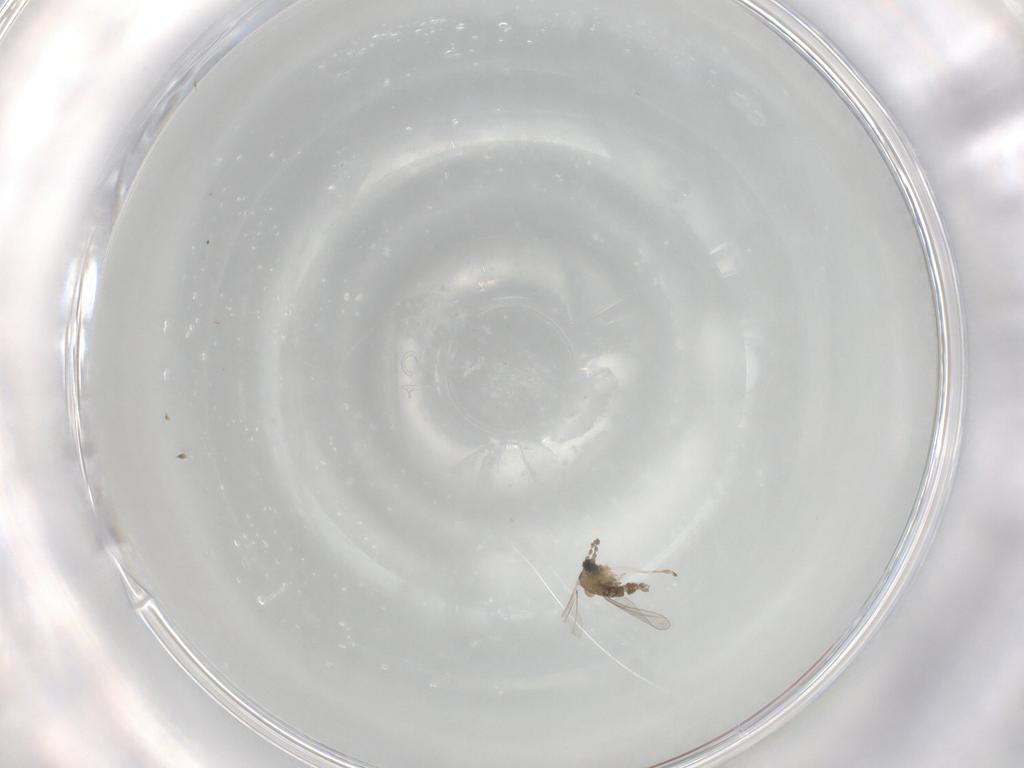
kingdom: Animalia
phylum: Arthropoda
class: Insecta
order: Diptera
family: Cecidomyiidae
